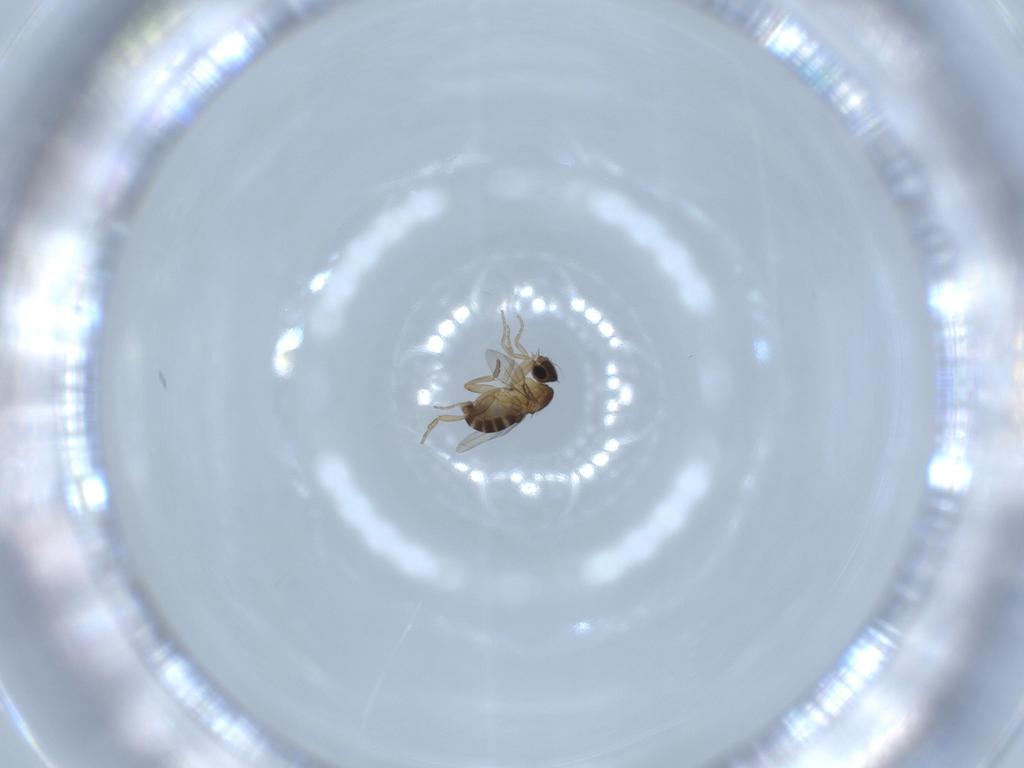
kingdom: Animalia
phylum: Arthropoda
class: Insecta
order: Diptera
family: Phoridae
